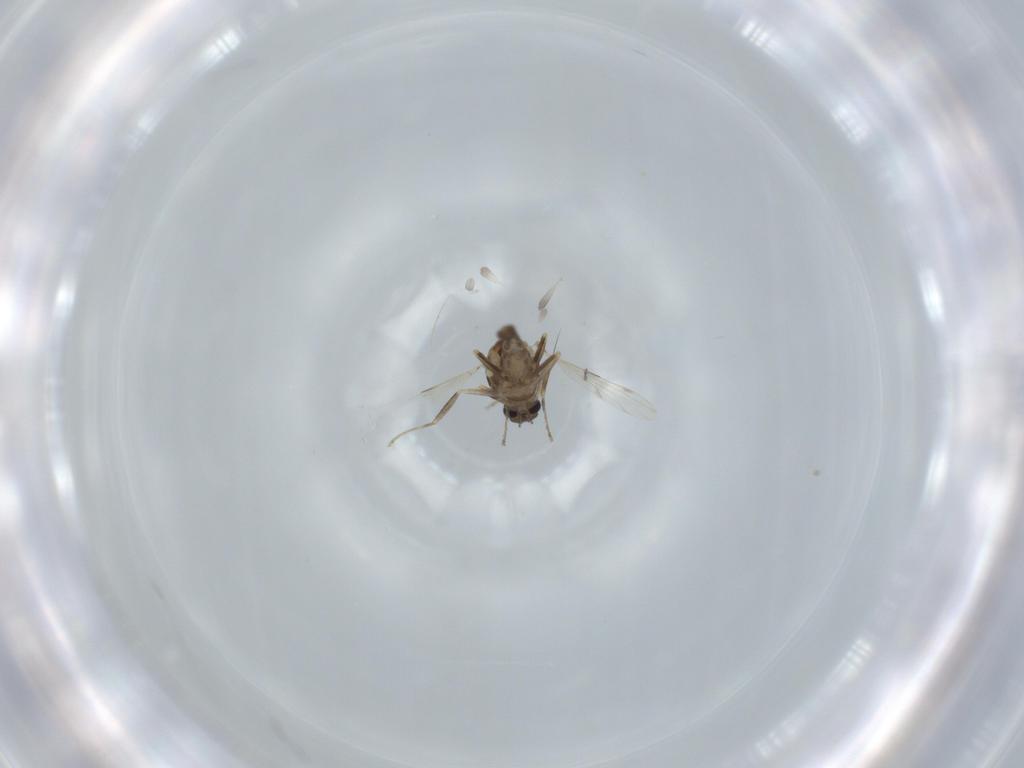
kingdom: Animalia
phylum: Arthropoda
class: Insecta
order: Diptera
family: Ceratopogonidae
